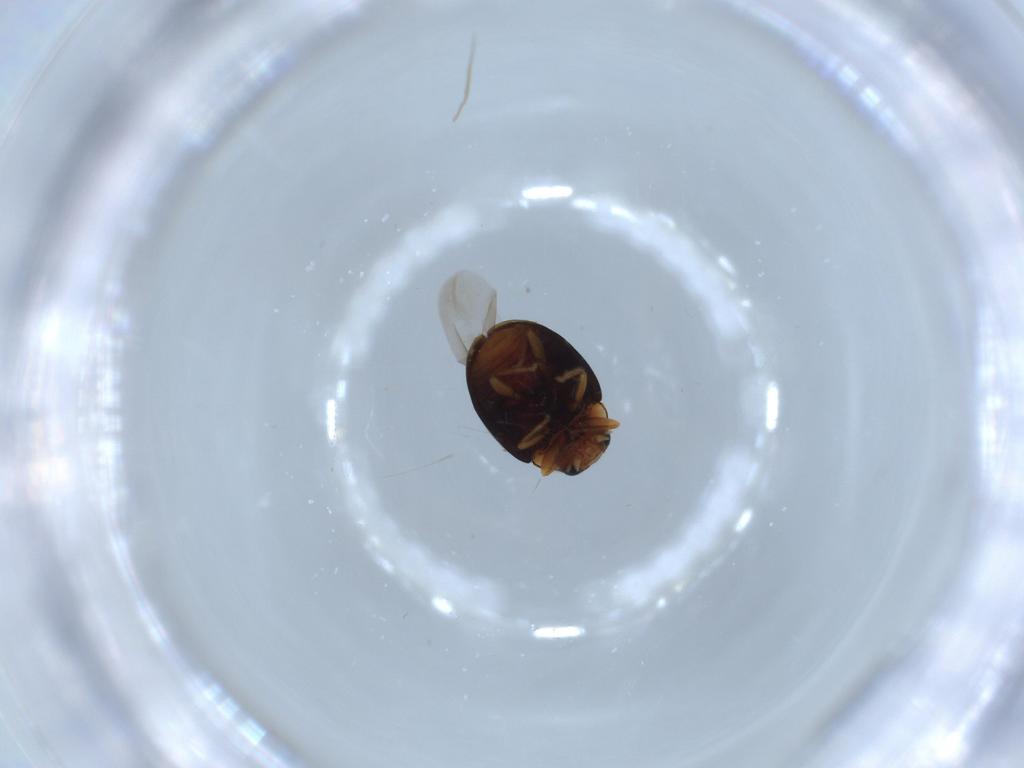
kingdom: Animalia
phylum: Arthropoda
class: Insecta
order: Coleoptera
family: Coccinellidae
